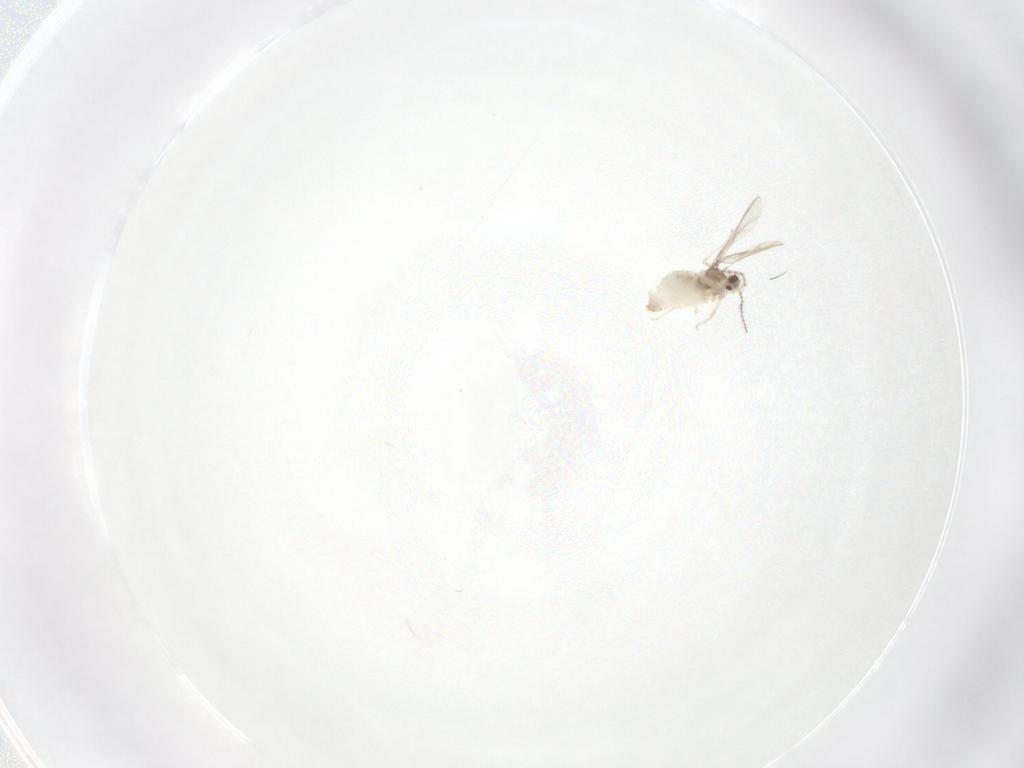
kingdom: Animalia
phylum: Arthropoda
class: Insecta
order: Diptera
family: Cecidomyiidae
